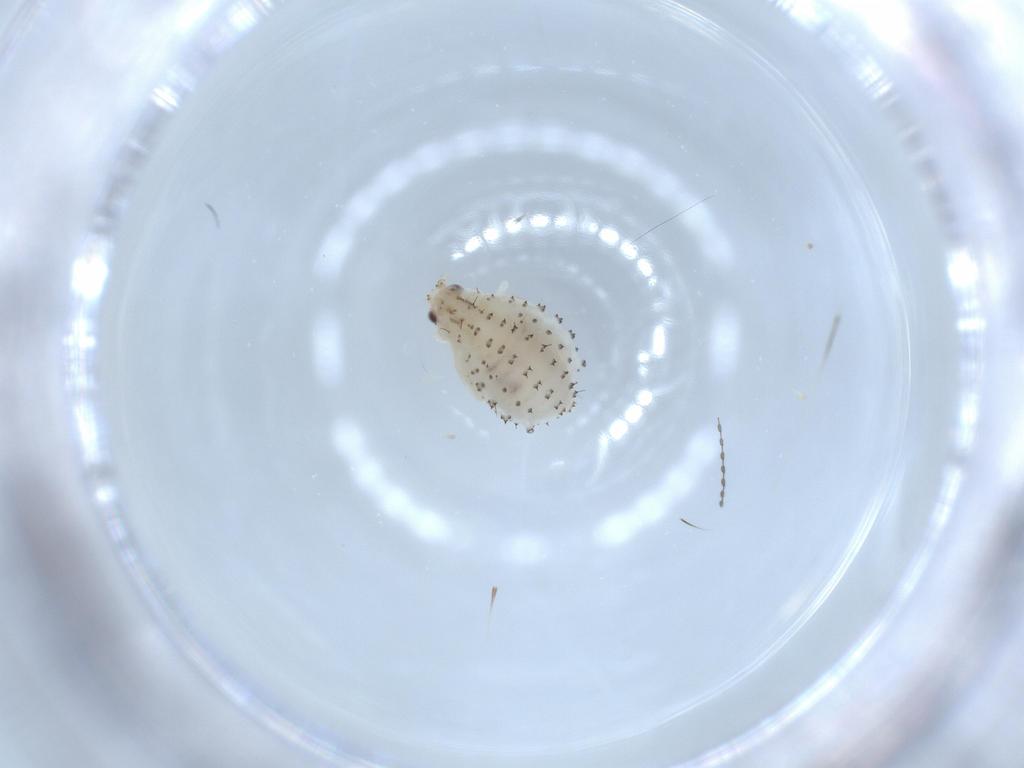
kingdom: Animalia
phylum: Arthropoda
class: Insecta
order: Hemiptera
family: Aphididae
